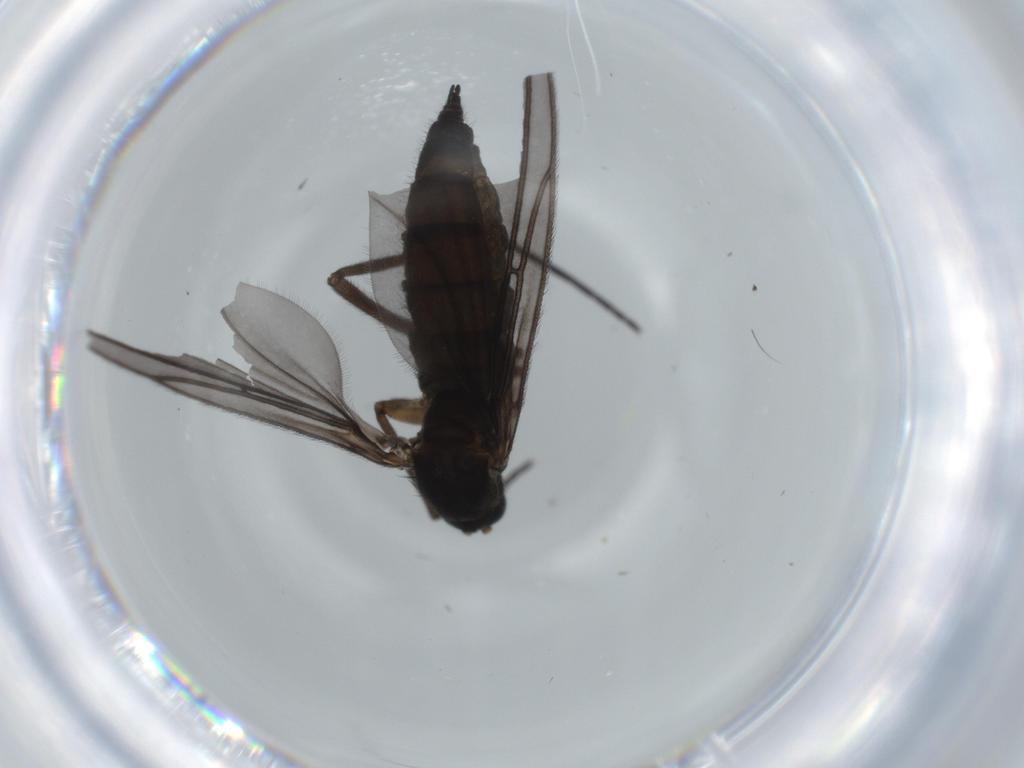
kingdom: Animalia
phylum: Arthropoda
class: Insecta
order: Diptera
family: Sciaridae
